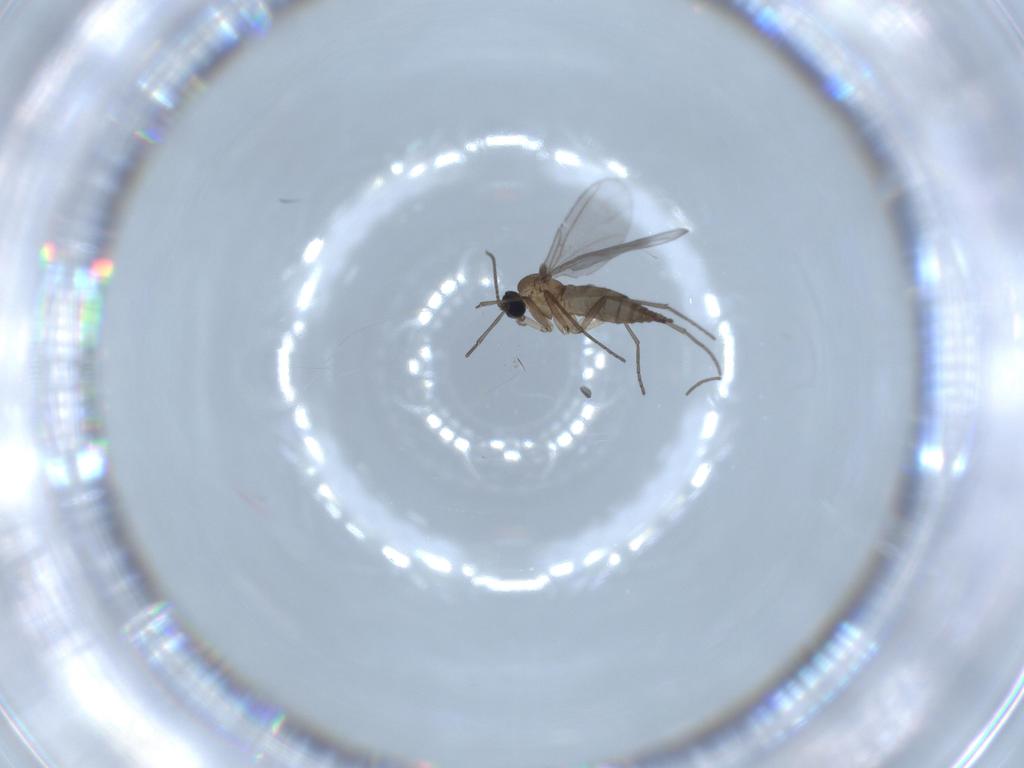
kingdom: Animalia
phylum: Arthropoda
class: Insecta
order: Diptera
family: Sciaridae
